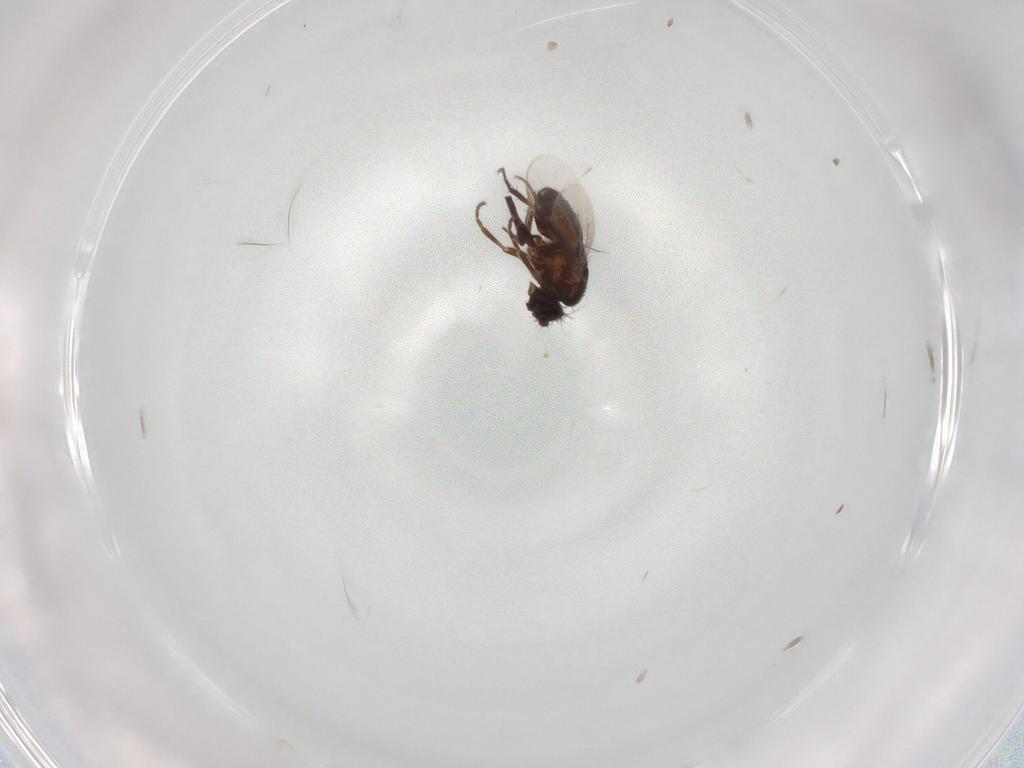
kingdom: Animalia
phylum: Arthropoda
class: Insecta
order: Diptera
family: Sphaeroceridae
